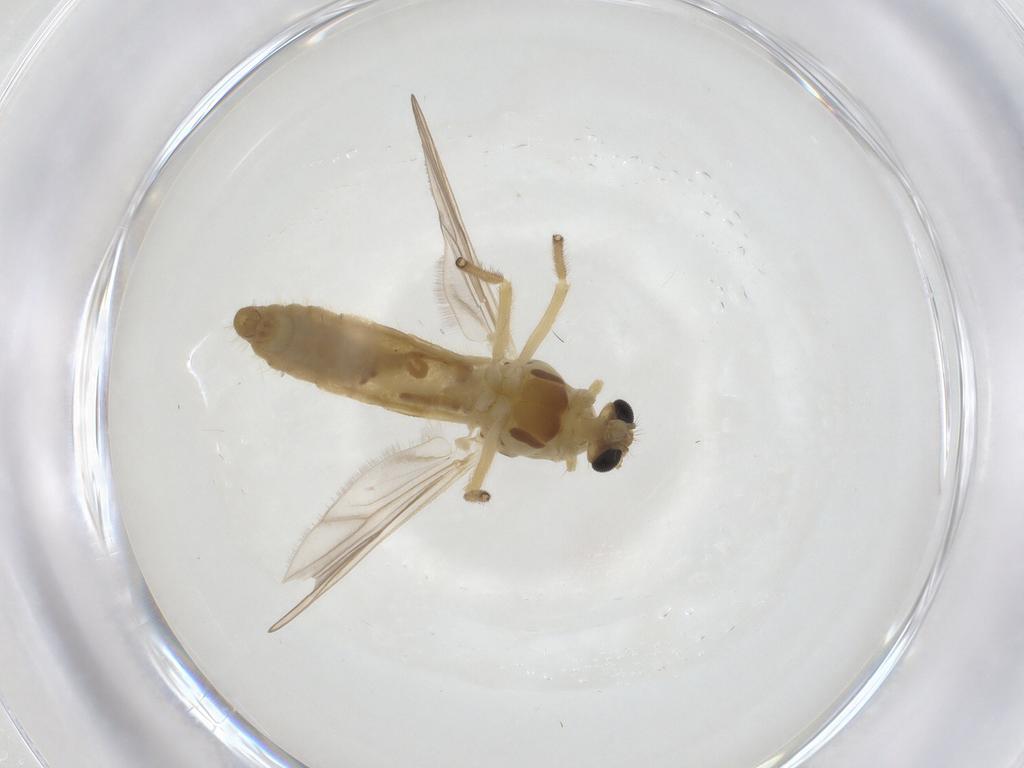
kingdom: Animalia
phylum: Arthropoda
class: Insecta
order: Diptera
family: Chironomidae
